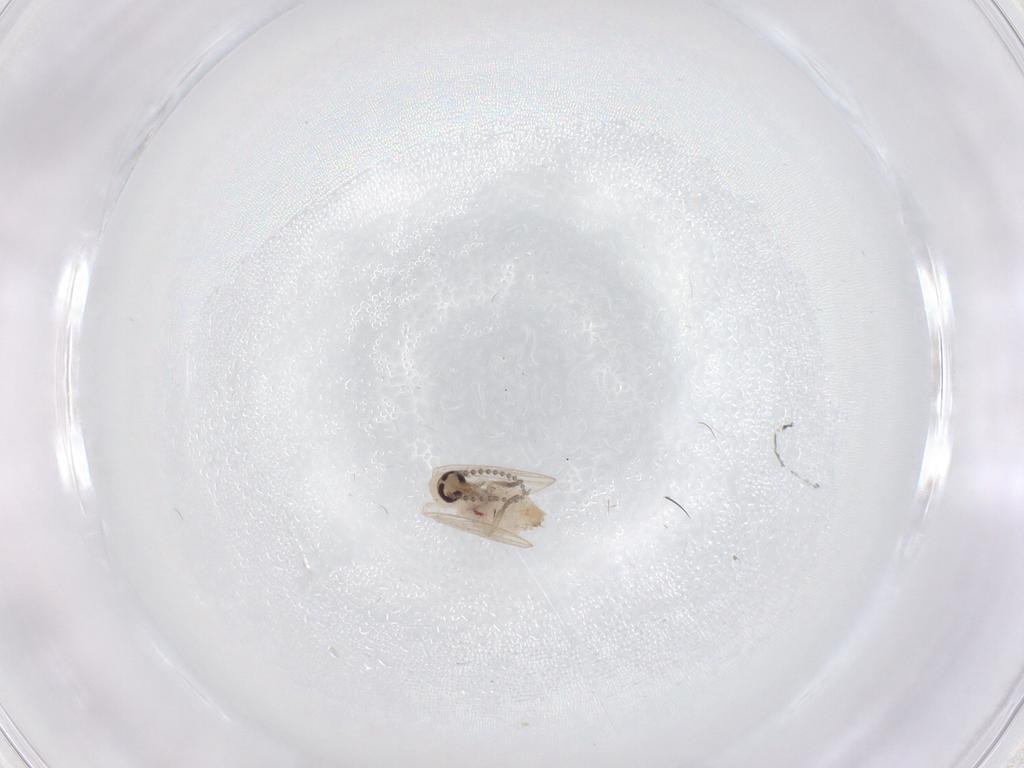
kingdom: Animalia
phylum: Arthropoda
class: Insecta
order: Diptera
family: Psychodidae
